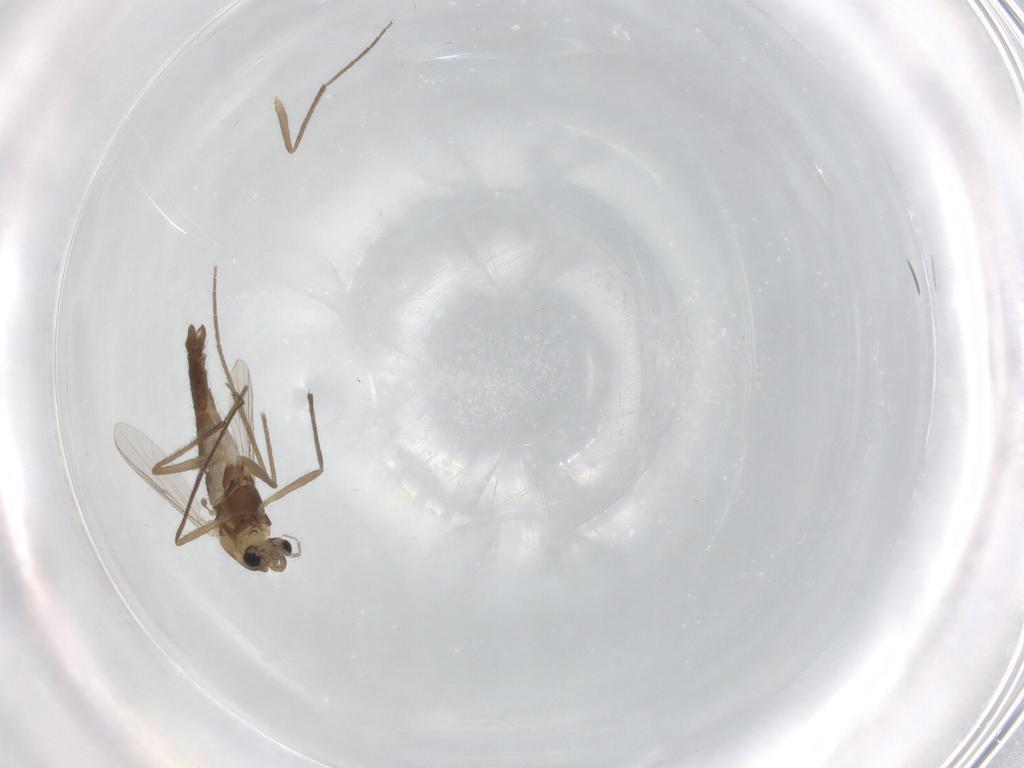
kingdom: Animalia
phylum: Arthropoda
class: Insecta
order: Diptera
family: Chironomidae
